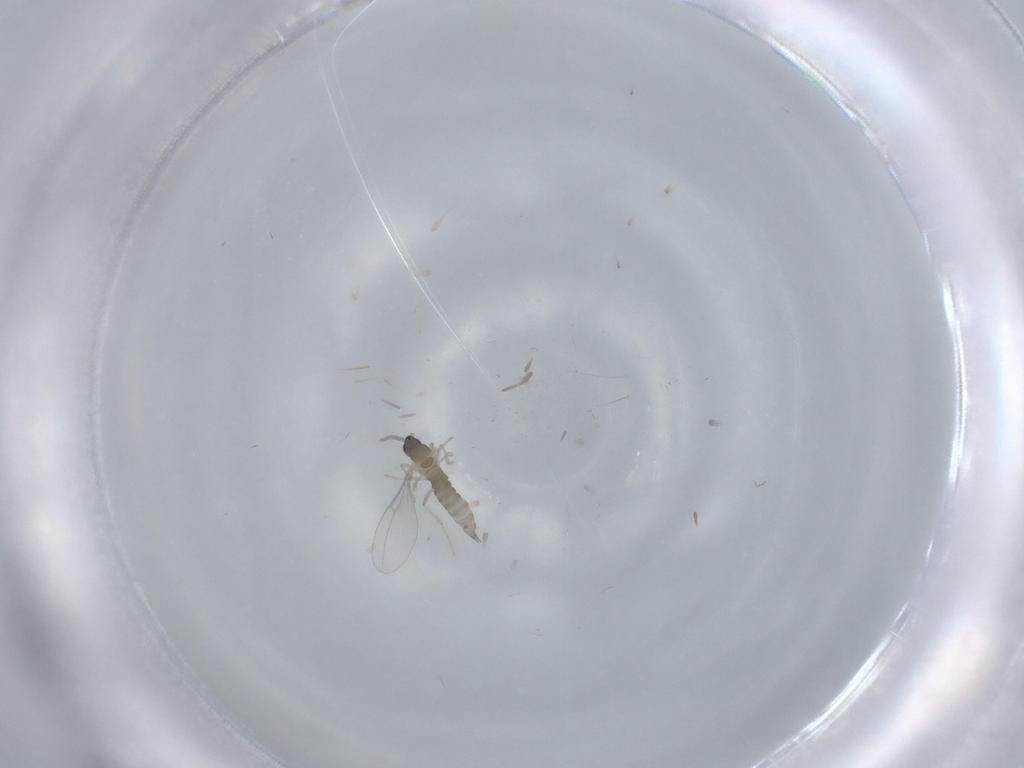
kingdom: Animalia
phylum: Arthropoda
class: Insecta
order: Diptera
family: Cecidomyiidae
